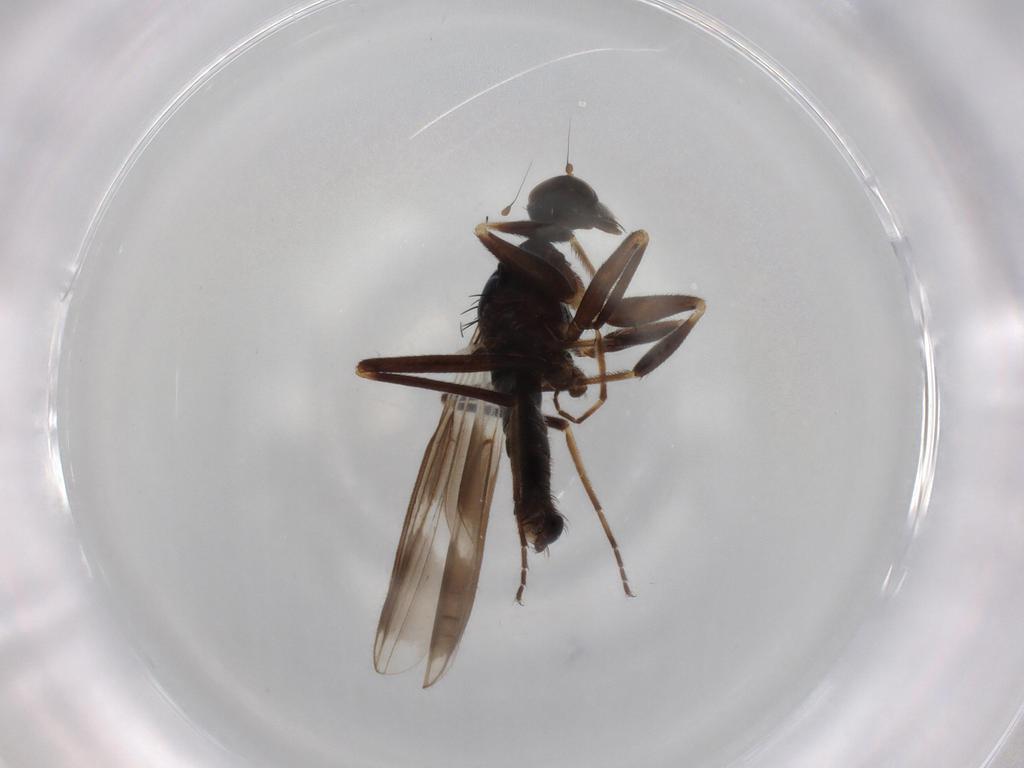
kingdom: Animalia
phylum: Arthropoda
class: Insecta
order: Diptera
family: Hybotidae
